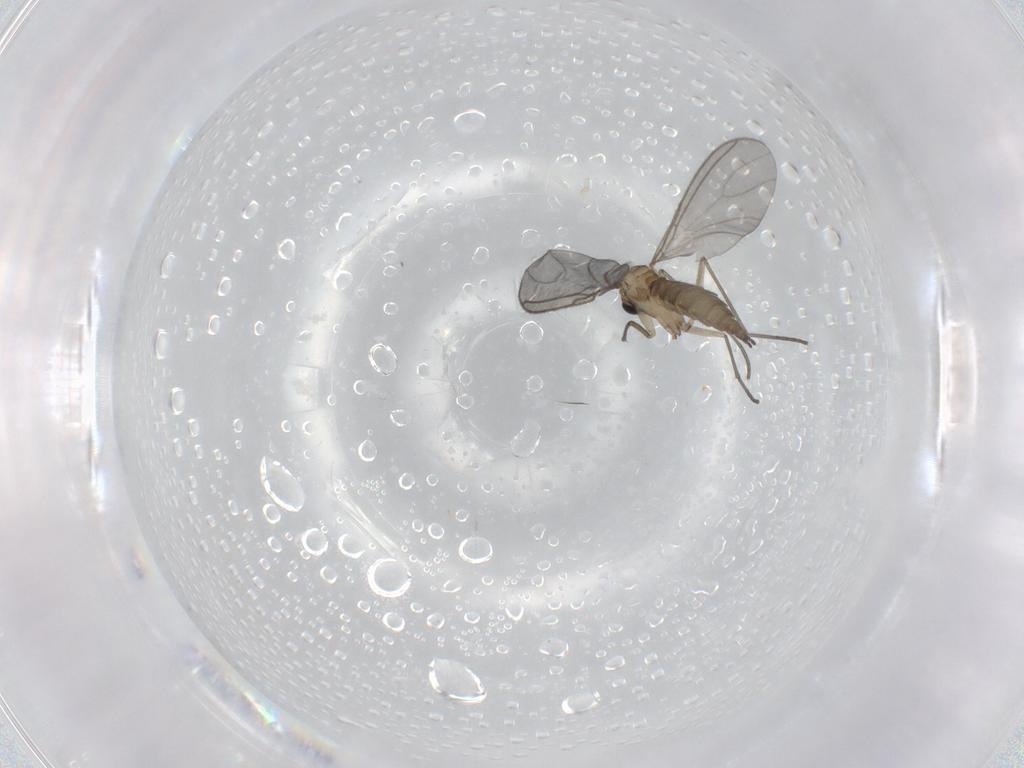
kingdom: Animalia
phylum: Arthropoda
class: Insecta
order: Diptera
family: Sciaridae
